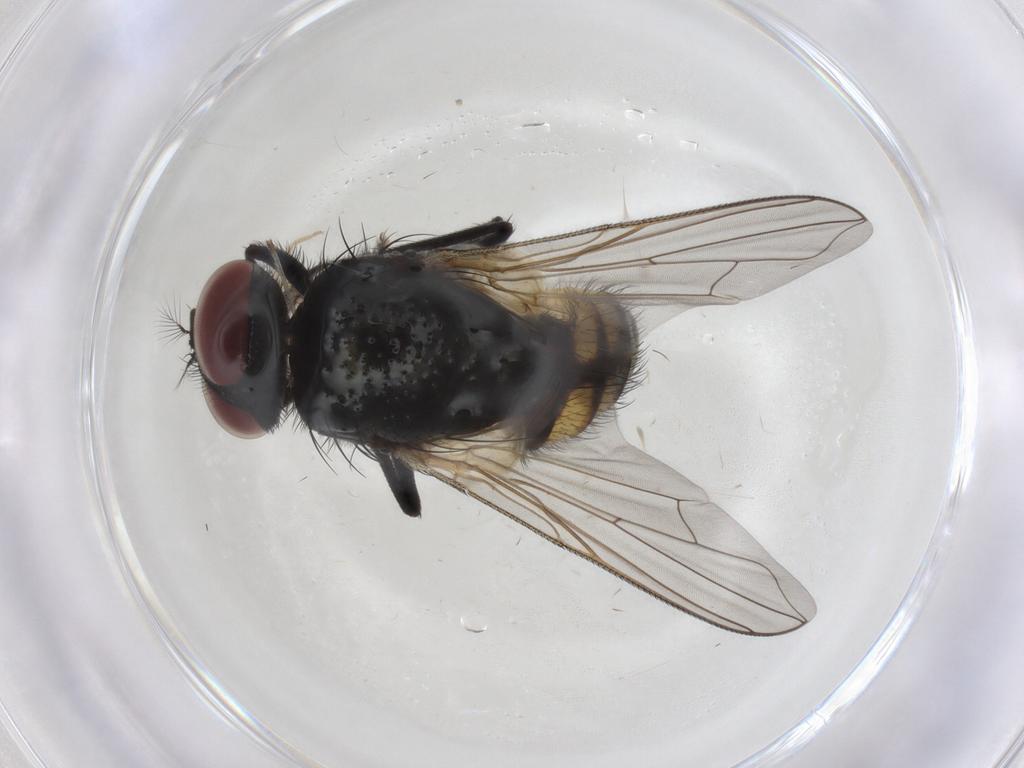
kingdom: Animalia
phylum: Arthropoda
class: Insecta
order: Diptera
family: Muscidae
